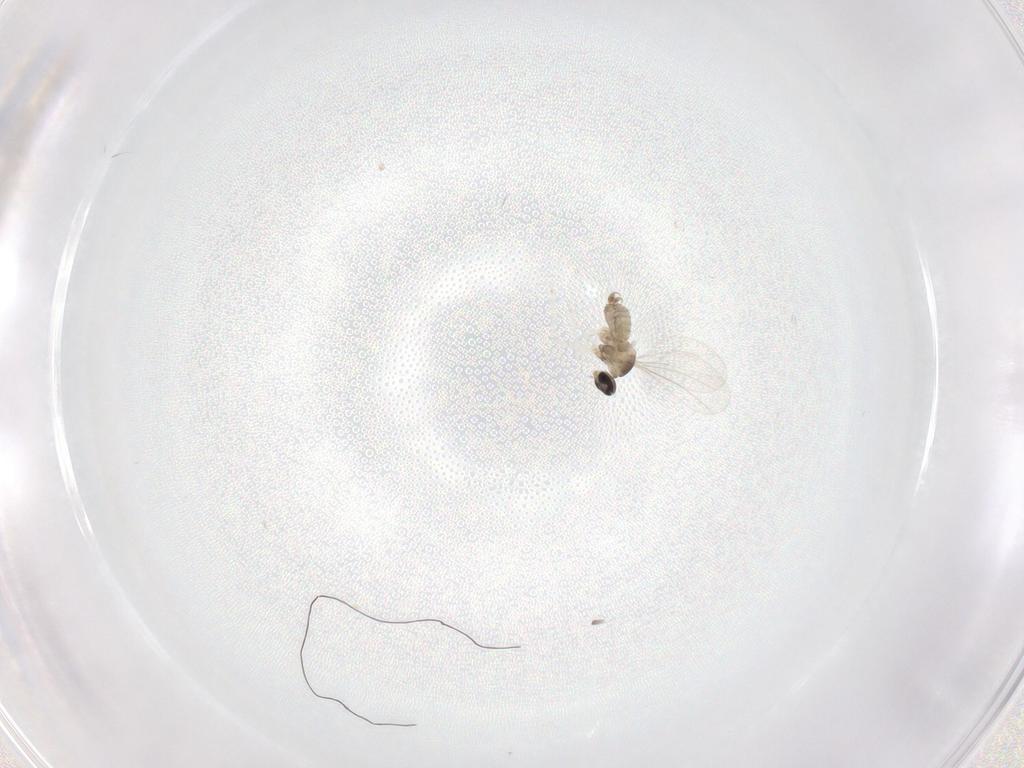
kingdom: Animalia
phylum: Arthropoda
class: Insecta
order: Diptera
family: Cecidomyiidae
